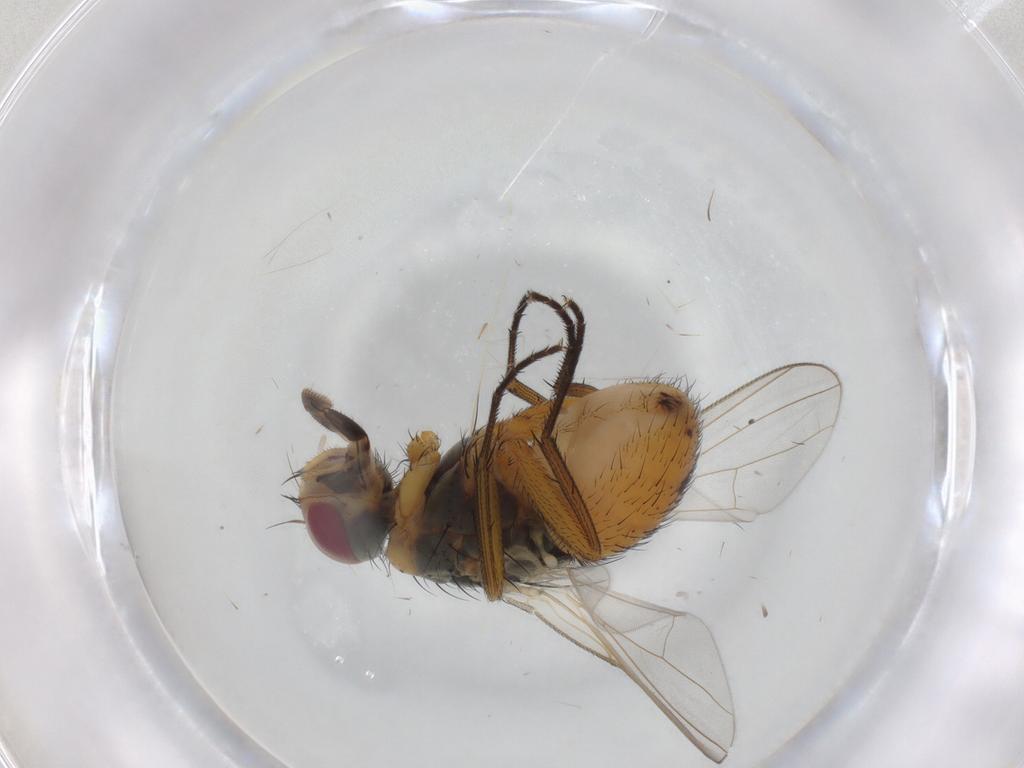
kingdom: Animalia
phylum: Arthropoda
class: Insecta
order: Diptera
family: Muscidae
